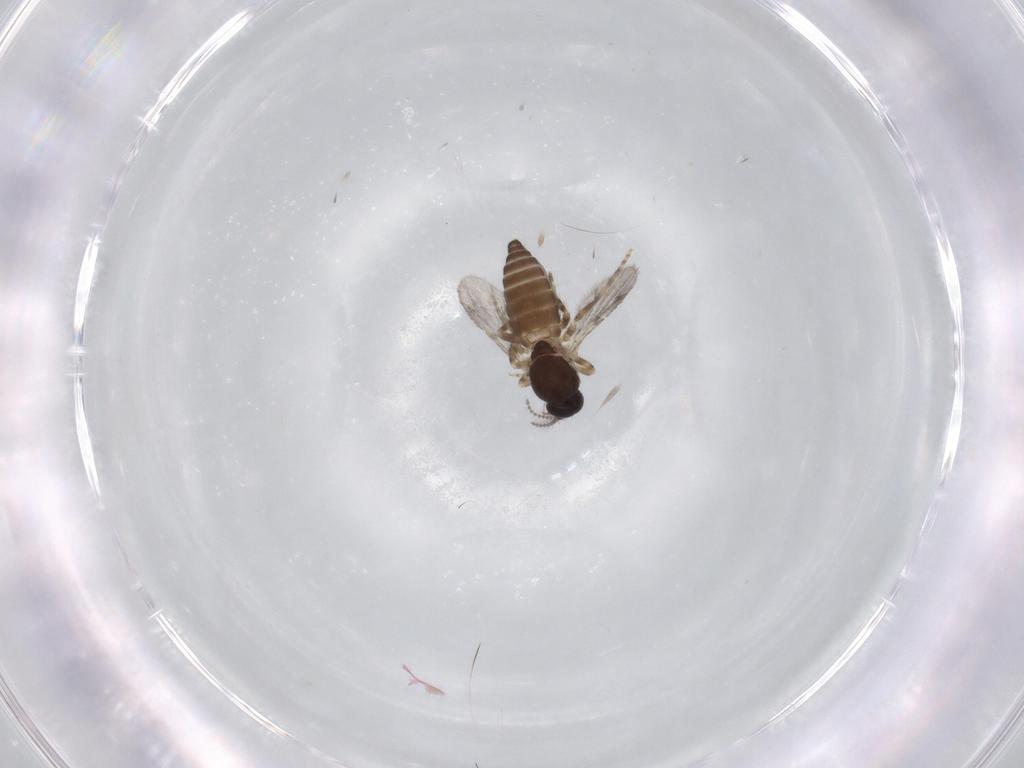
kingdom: Animalia
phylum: Arthropoda
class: Insecta
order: Diptera
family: Ceratopogonidae
